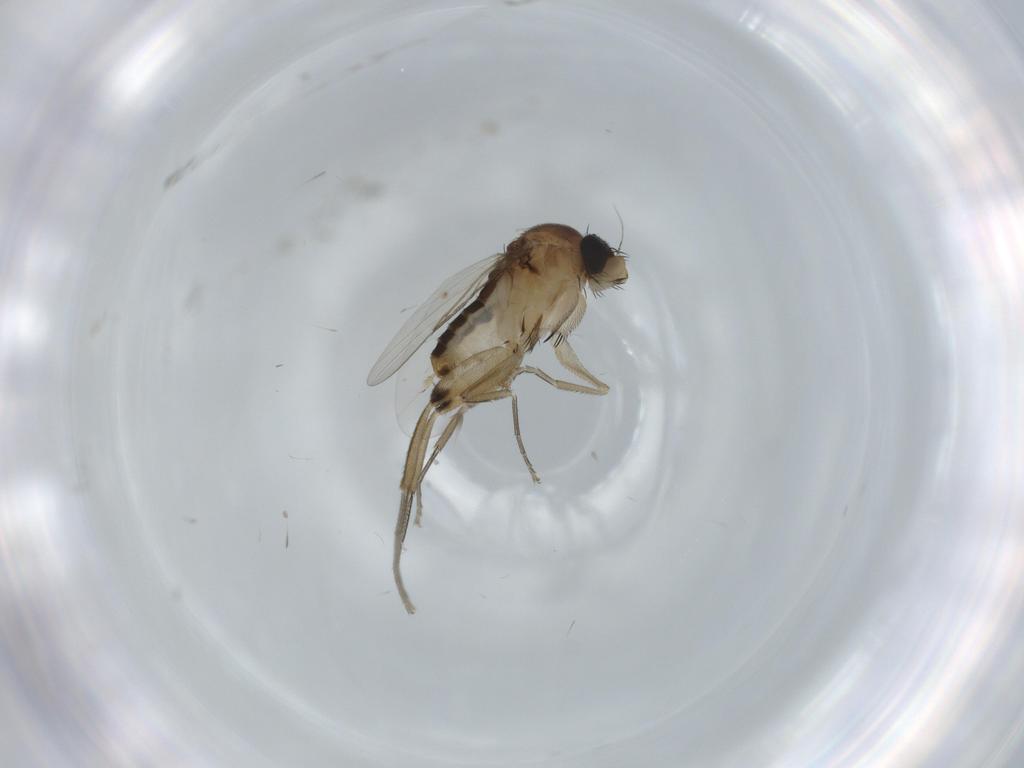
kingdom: Animalia
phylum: Arthropoda
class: Insecta
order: Diptera
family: Phoridae
